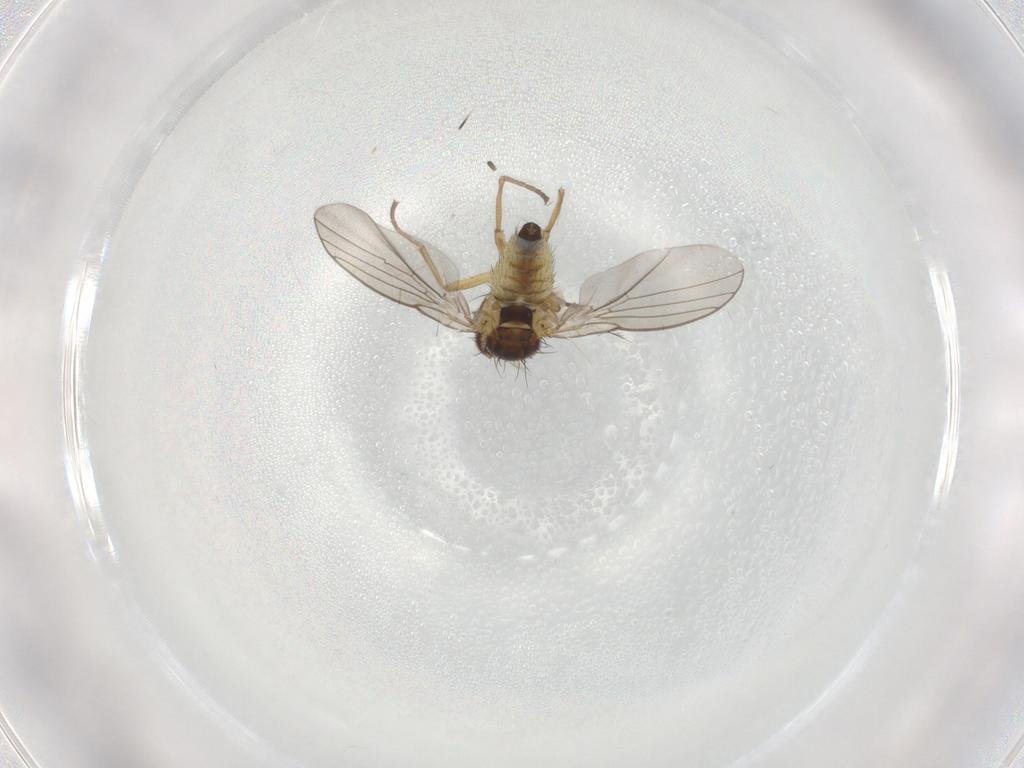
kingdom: Animalia
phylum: Arthropoda
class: Insecta
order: Diptera
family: Agromyzidae
